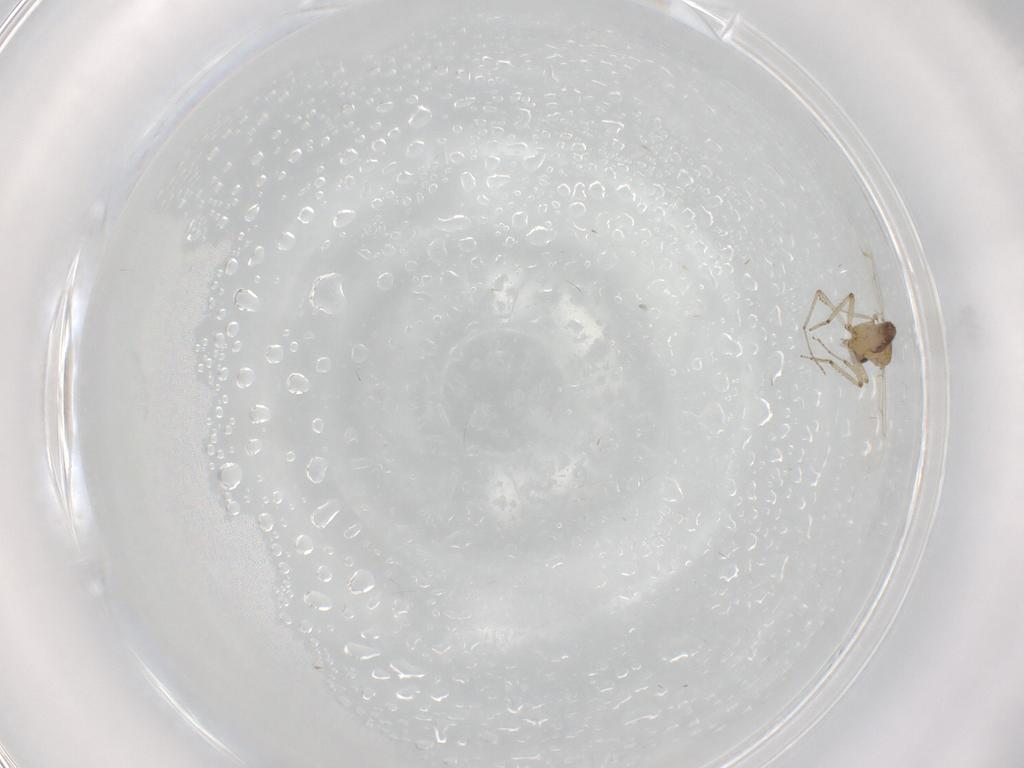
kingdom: Animalia
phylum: Arthropoda
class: Insecta
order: Diptera
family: Ceratopogonidae
